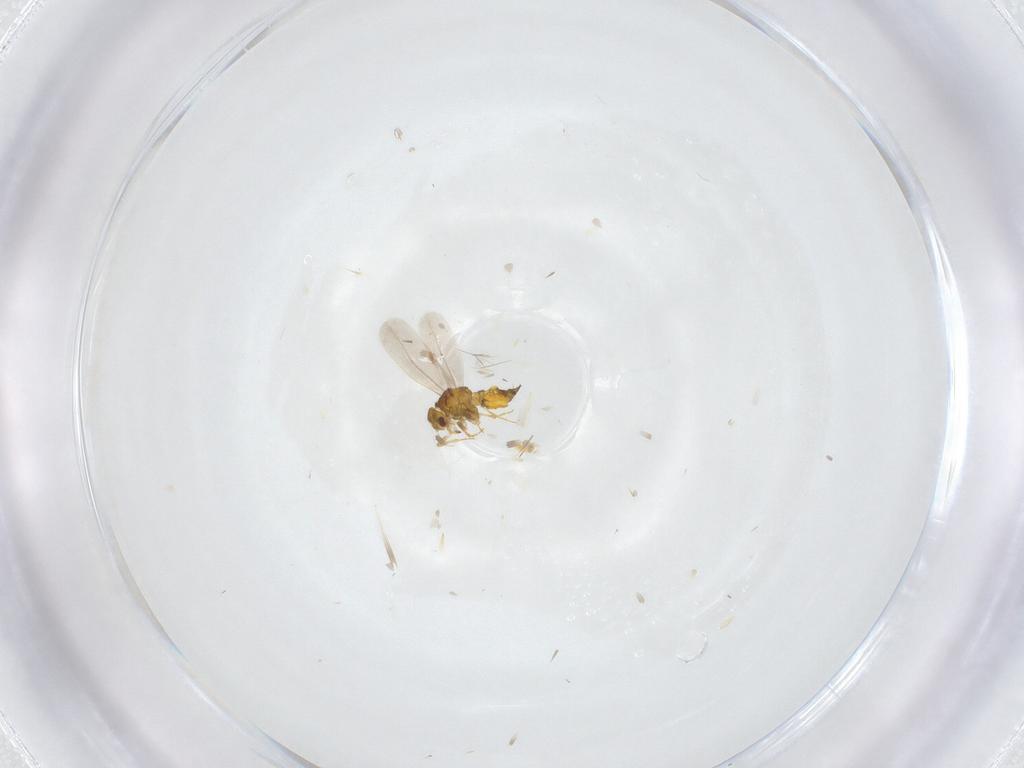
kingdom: Animalia
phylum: Arthropoda
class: Insecta
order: Hemiptera
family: Aleyrodidae
